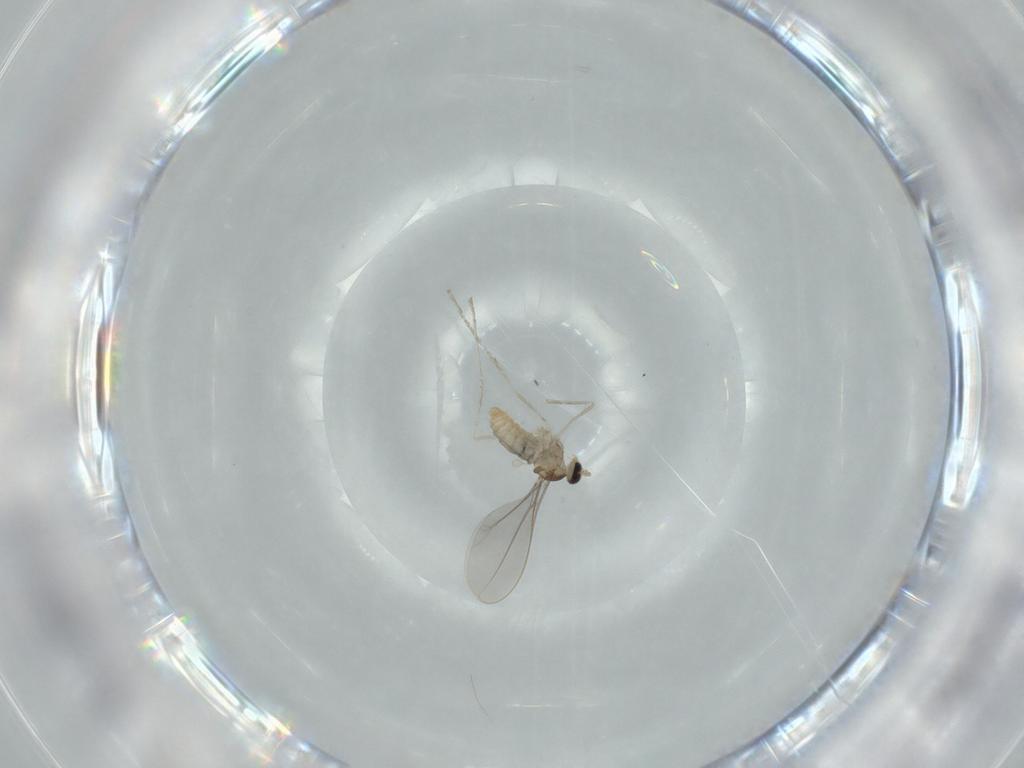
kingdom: Animalia
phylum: Arthropoda
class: Insecta
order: Diptera
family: Cecidomyiidae
